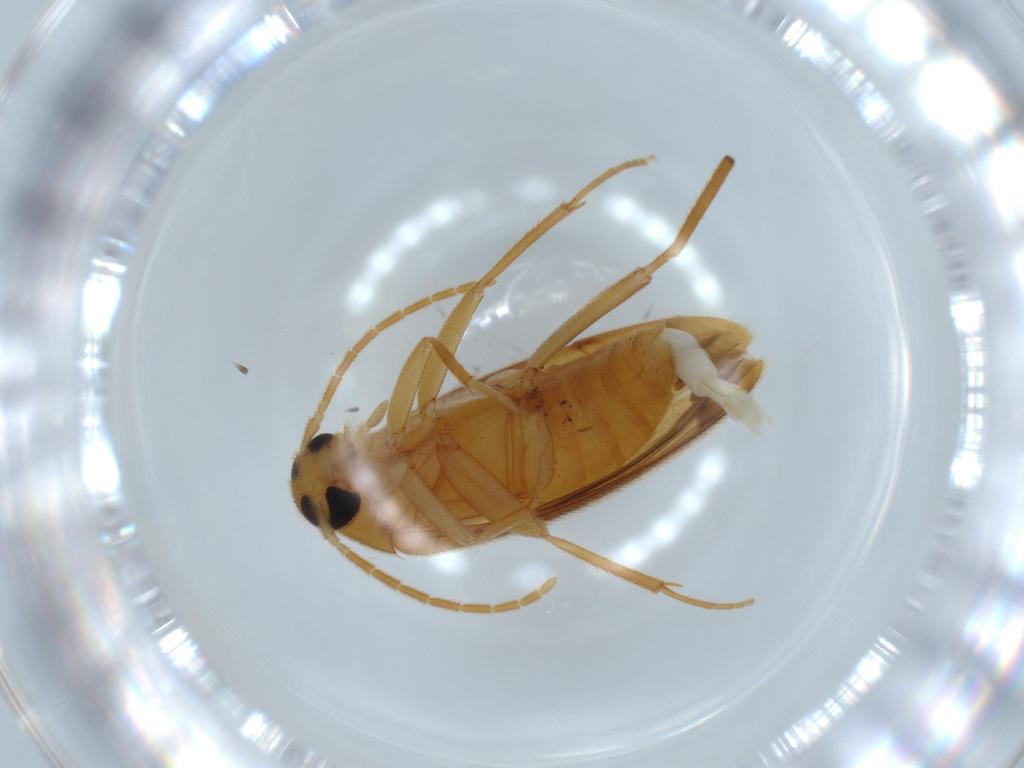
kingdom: Animalia
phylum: Arthropoda
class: Insecta
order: Coleoptera
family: Scraptiidae
